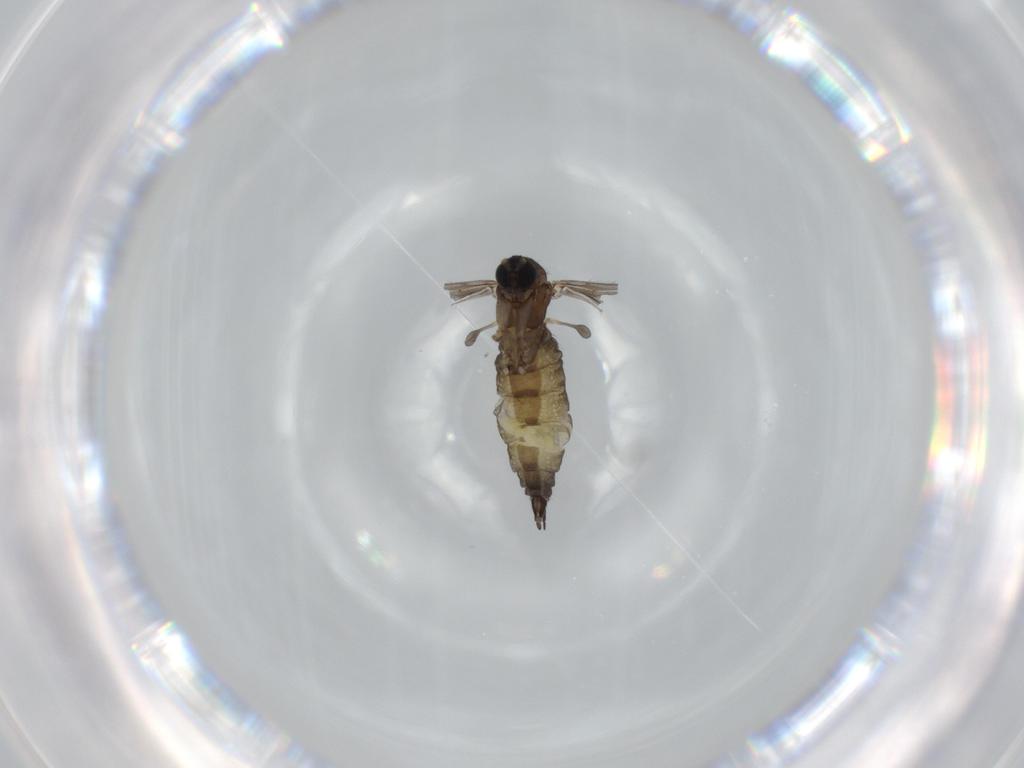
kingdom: Animalia
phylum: Arthropoda
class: Insecta
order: Diptera
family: Sciaridae
